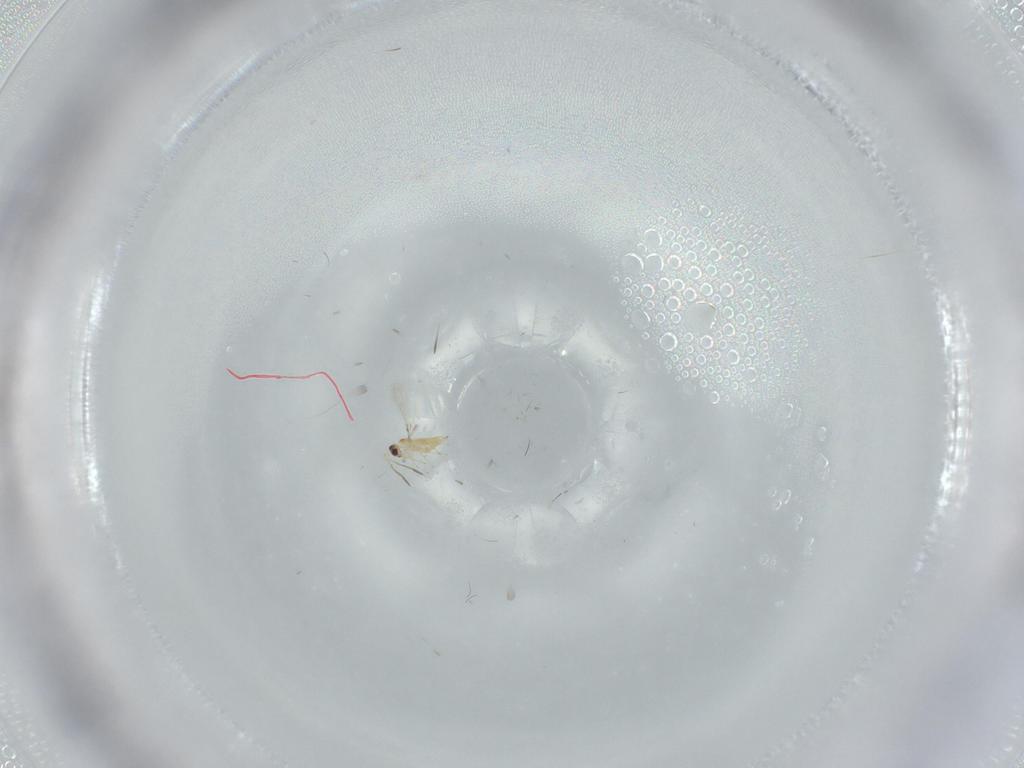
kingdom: Animalia
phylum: Arthropoda
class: Insecta
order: Hymenoptera
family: Mymaridae
